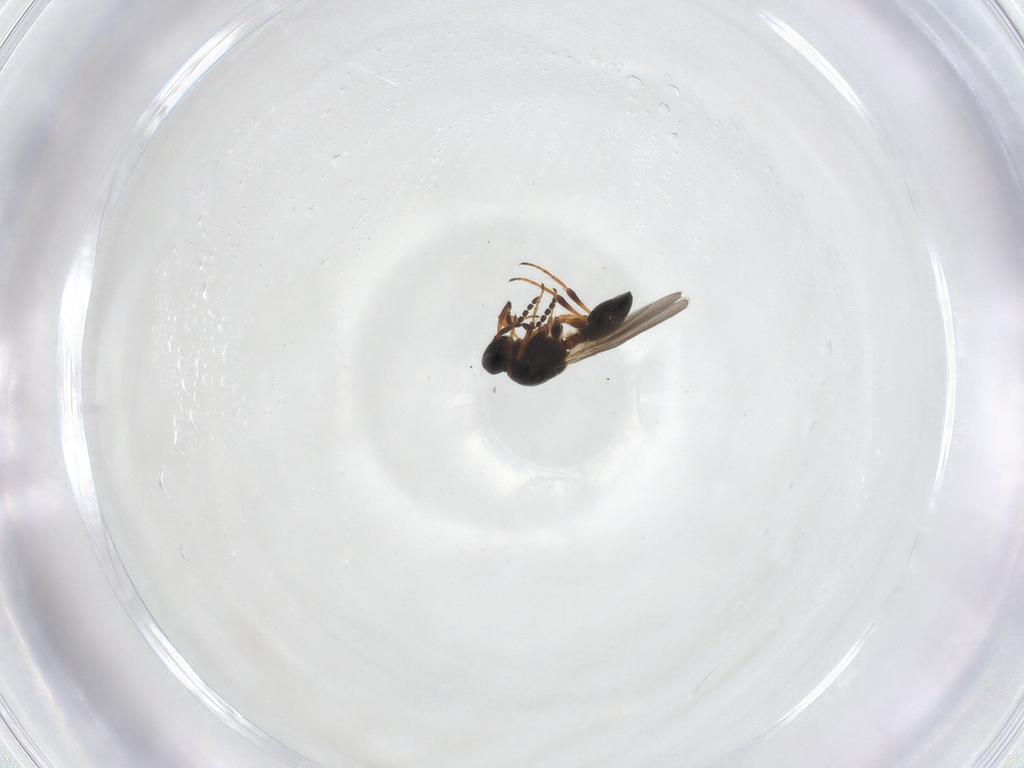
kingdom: Animalia
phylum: Arthropoda
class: Insecta
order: Hymenoptera
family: Platygastridae
